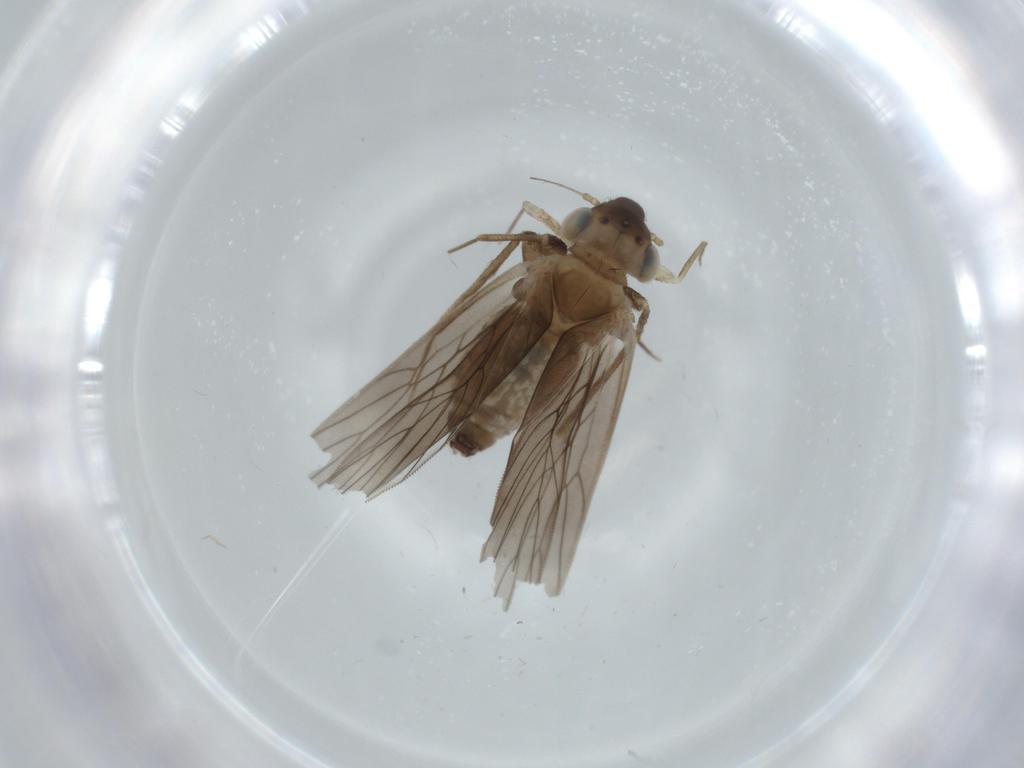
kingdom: Animalia
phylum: Arthropoda
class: Insecta
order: Psocodea
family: Lepidopsocidae
